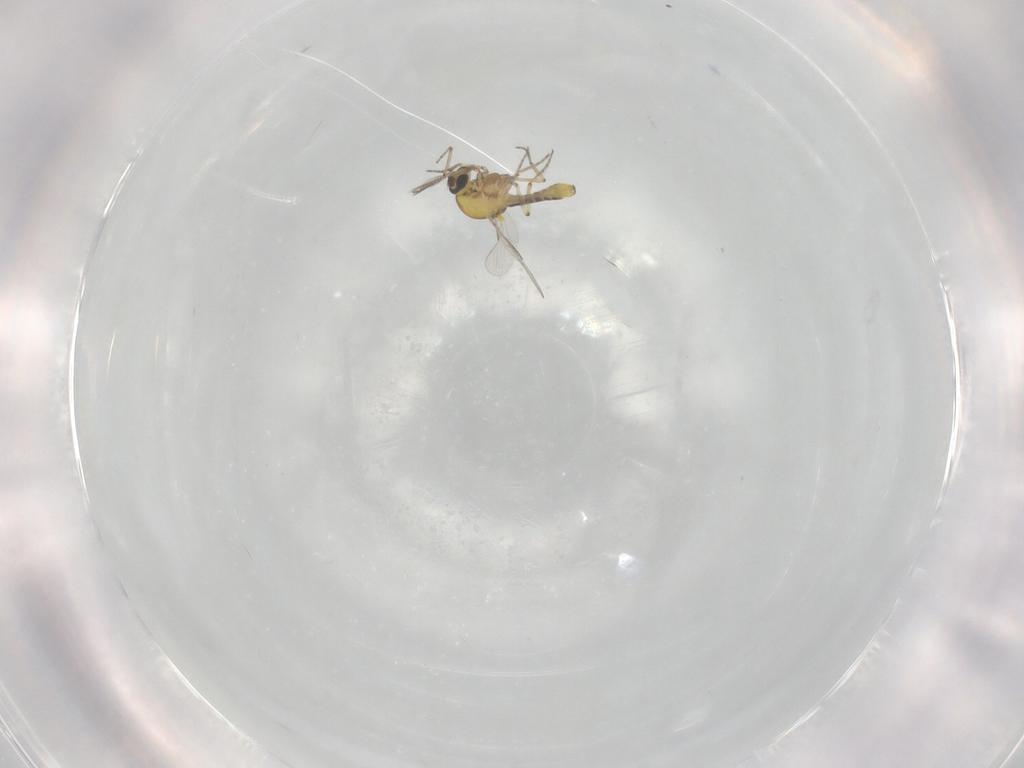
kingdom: Animalia
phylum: Arthropoda
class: Insecta
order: Diptera
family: Ceratopogonidae
